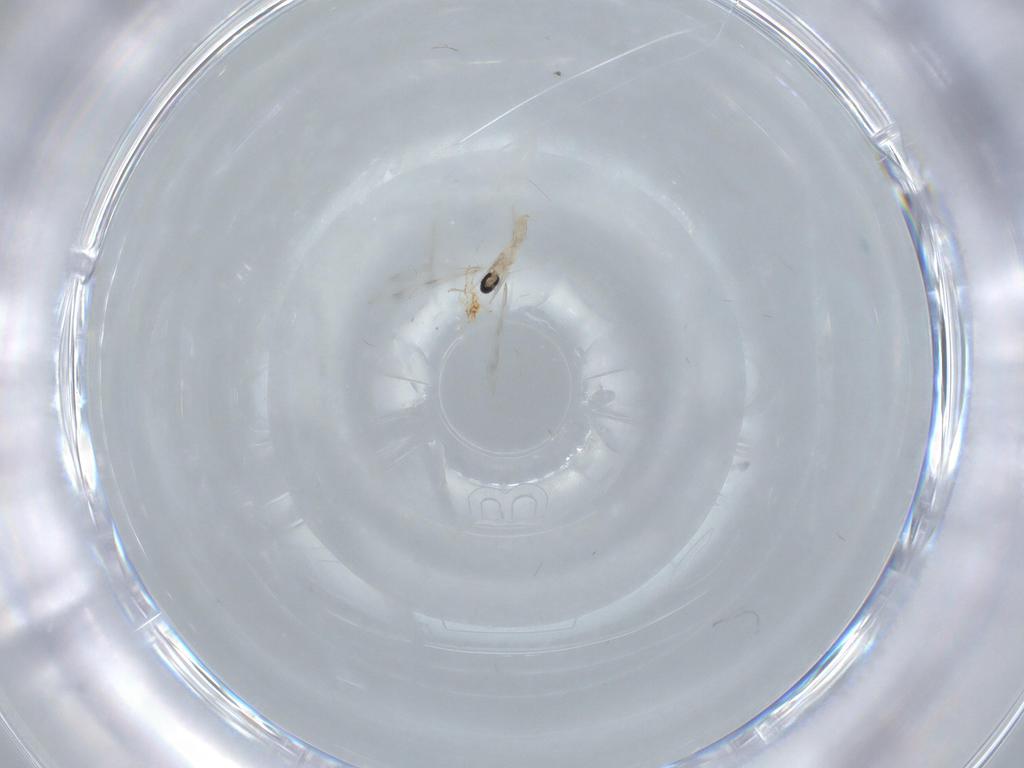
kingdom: Animalia
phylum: Arthropoda
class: Insecta
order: Diptera
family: Cecidomyiidae
